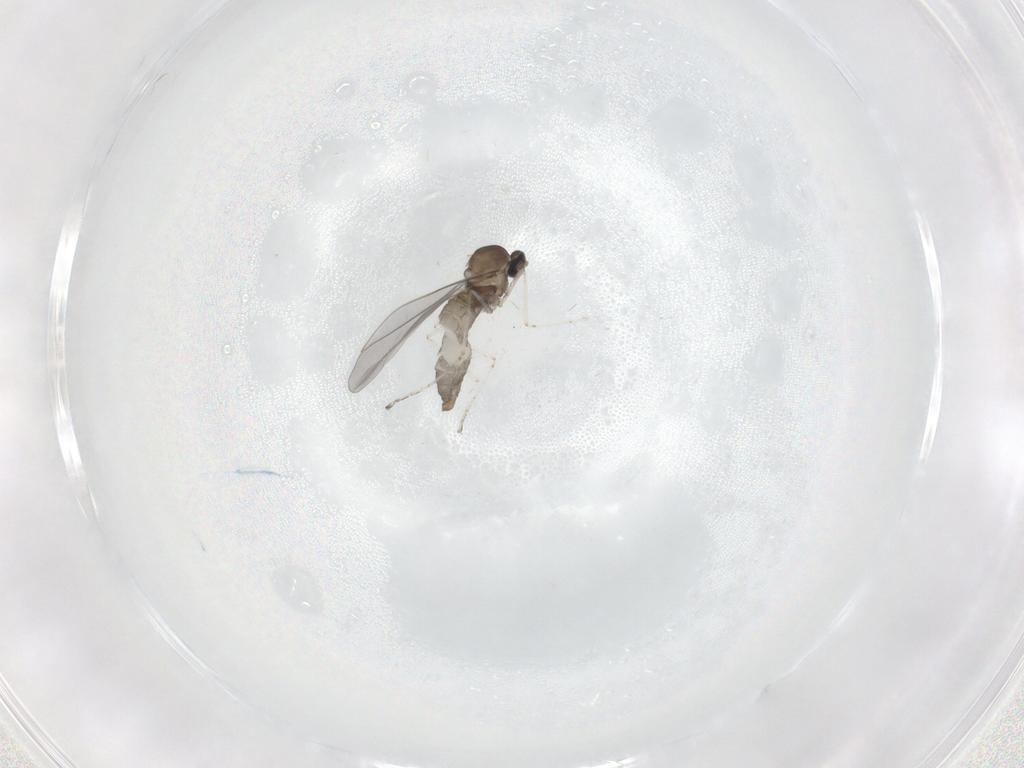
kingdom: Animalia
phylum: Arthropoda
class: Insecta
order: Diptera
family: Cecidomyiidae
